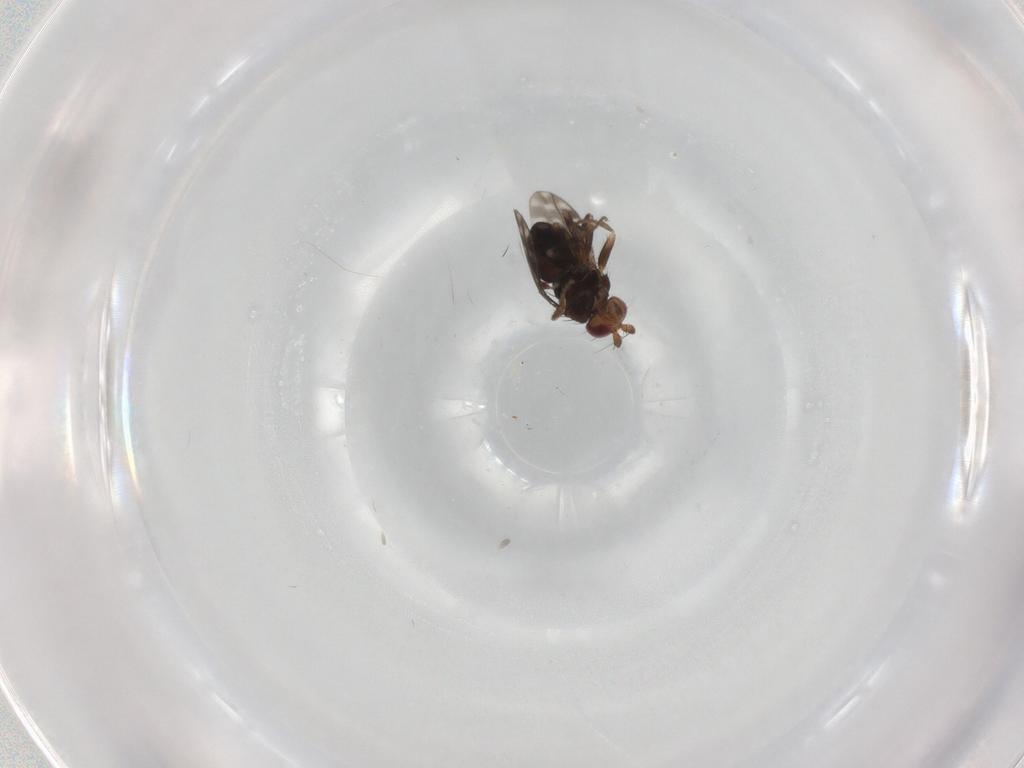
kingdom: Animalia
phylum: Arthropoda
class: Insecta
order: Diptera
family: Sphaeroceridae
